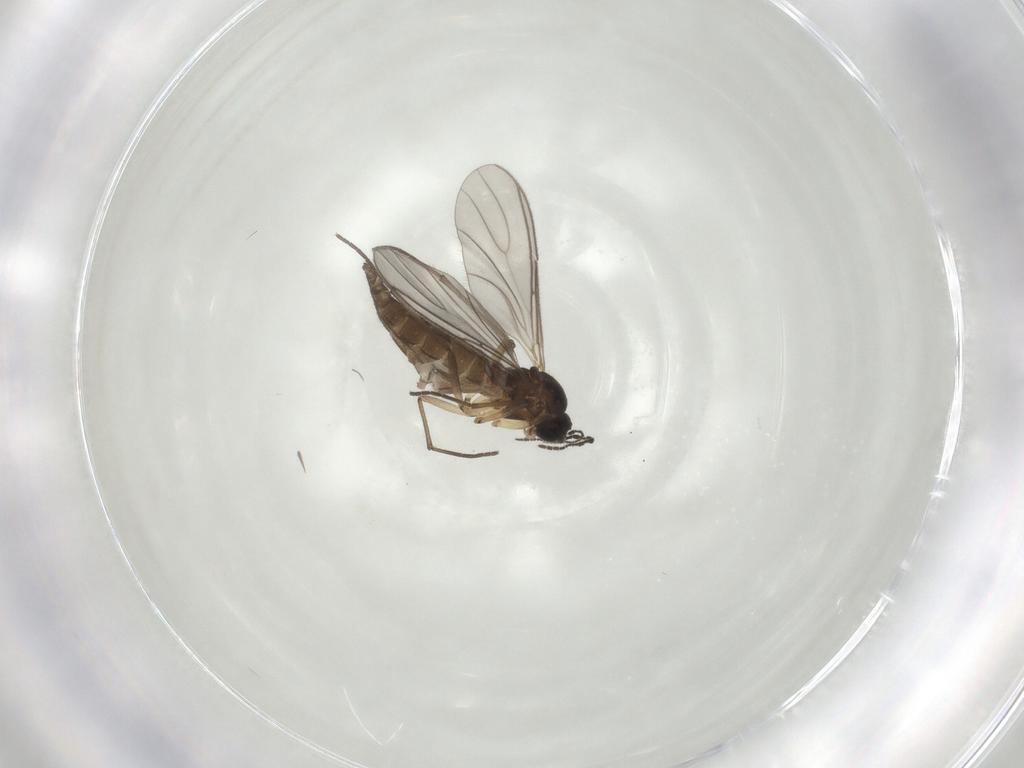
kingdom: Animalia
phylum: Arthropoda
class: Insecta
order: Diptera
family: Sciaridae
